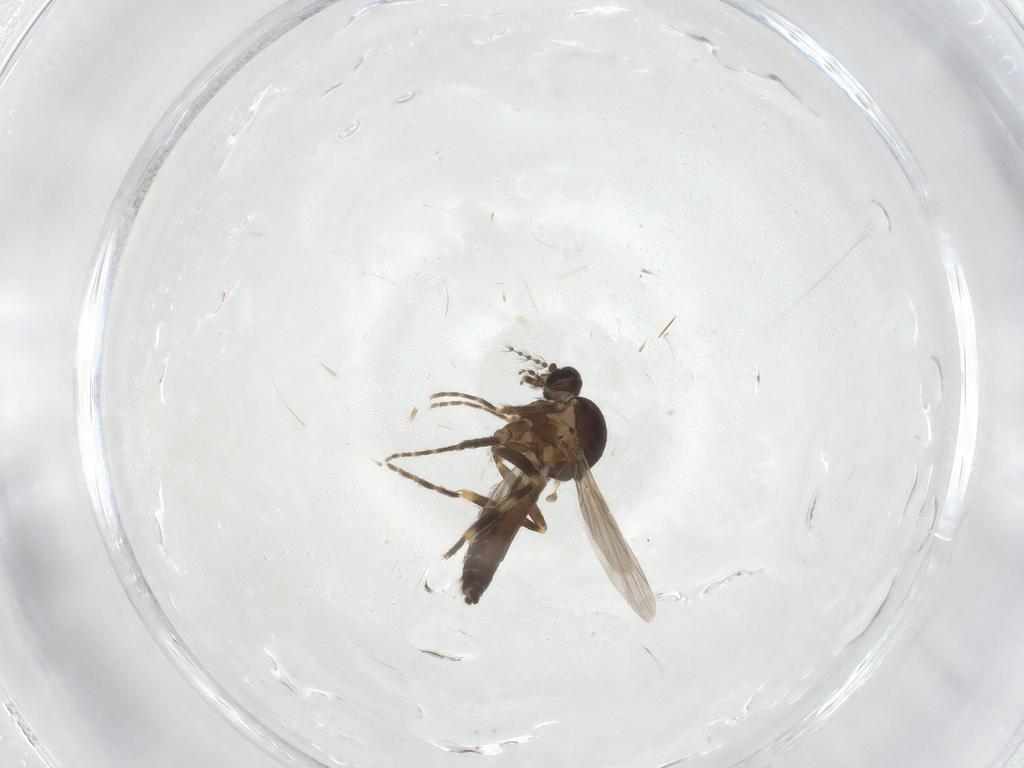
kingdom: Animalia
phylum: Arthropoda
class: Insecta
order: Diptera
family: Ceratopogonidae
